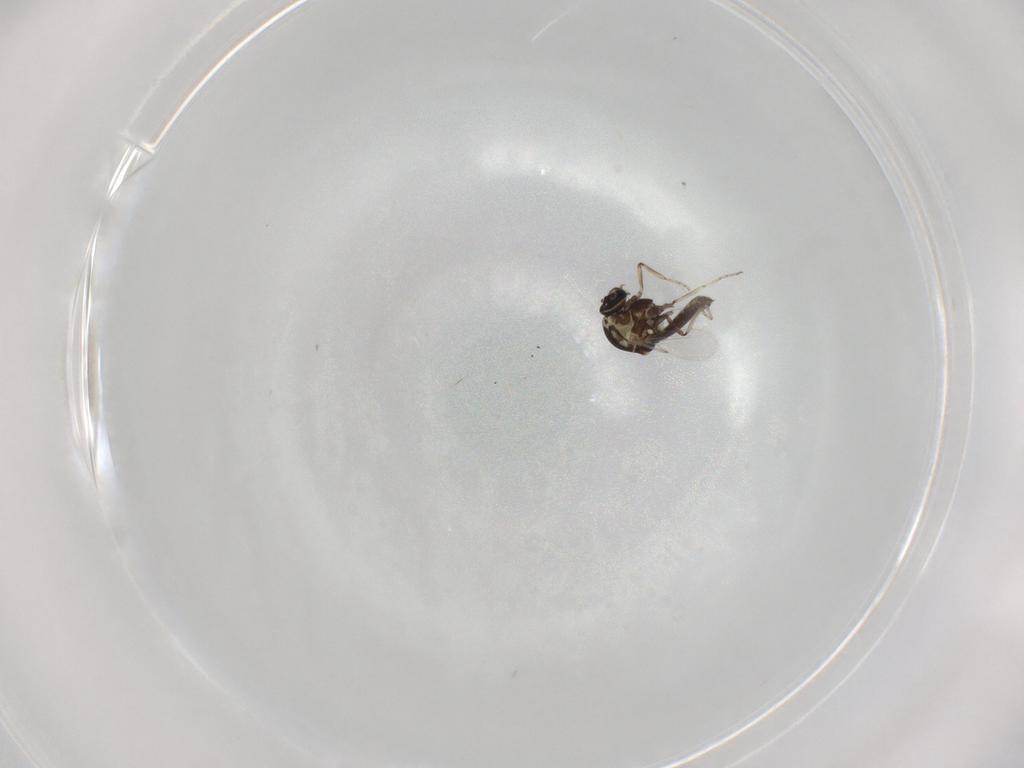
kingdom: Animalia
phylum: Arthropoda
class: Insecta
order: Diptera
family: Ceratopogonidae
